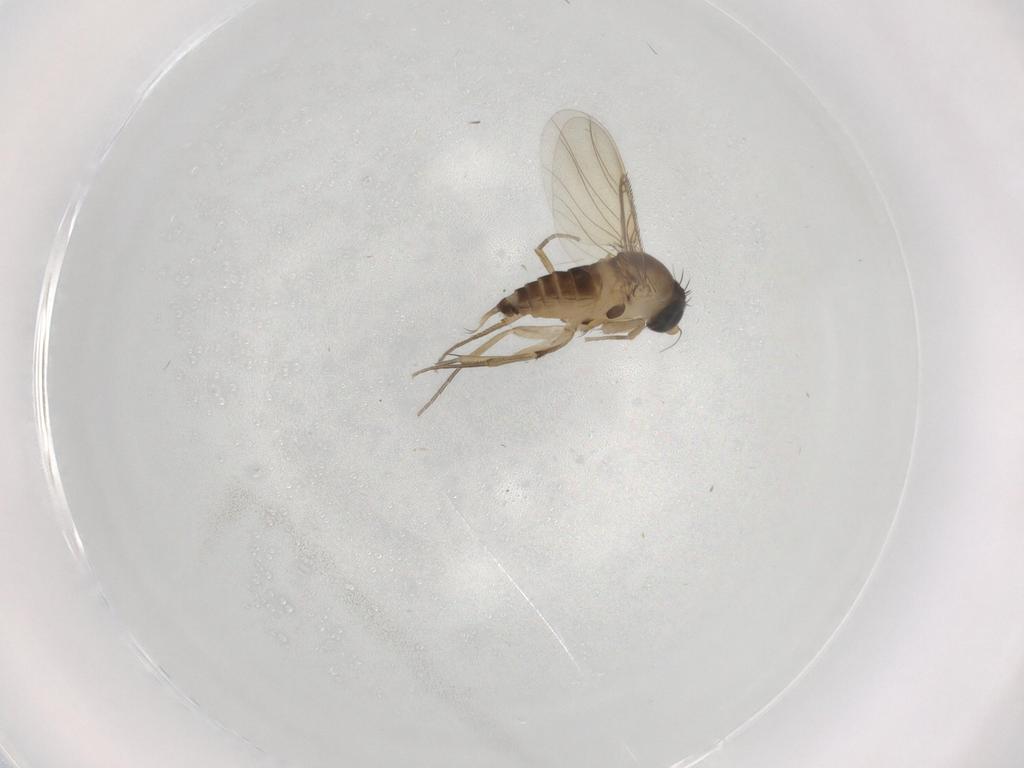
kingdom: Animalia
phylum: Arthropoda
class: Insecta
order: Diptera
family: Phoridae
